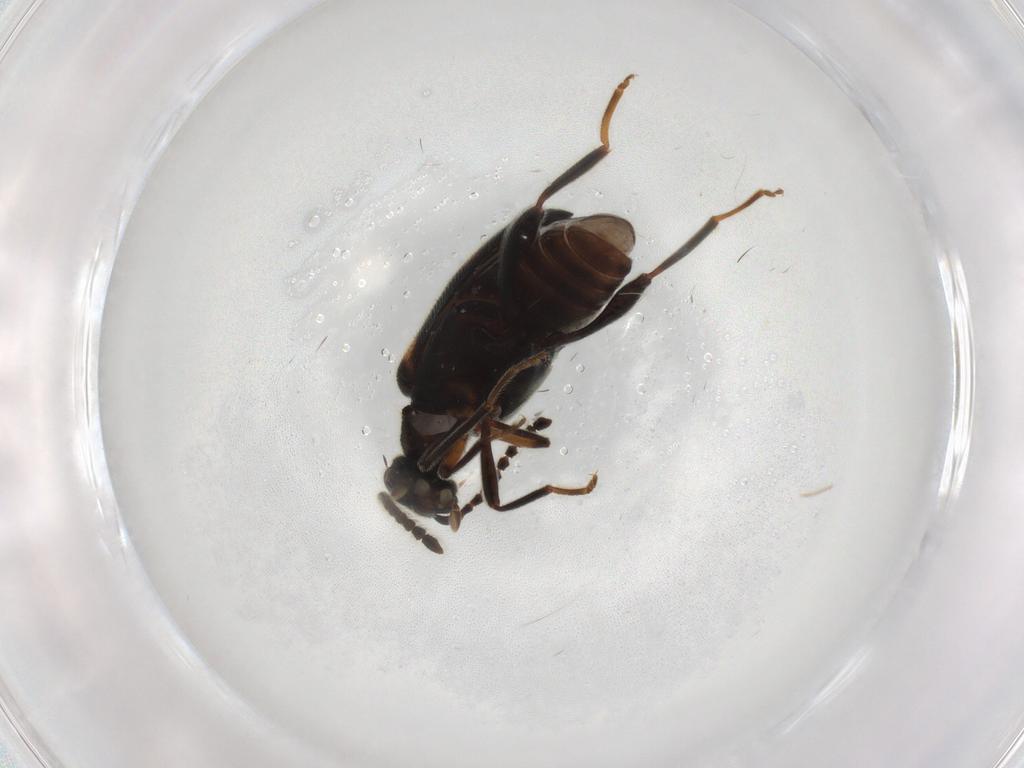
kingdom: Animalia
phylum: Arthropoda
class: Insecta
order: Coleoptera
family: Aderidae
